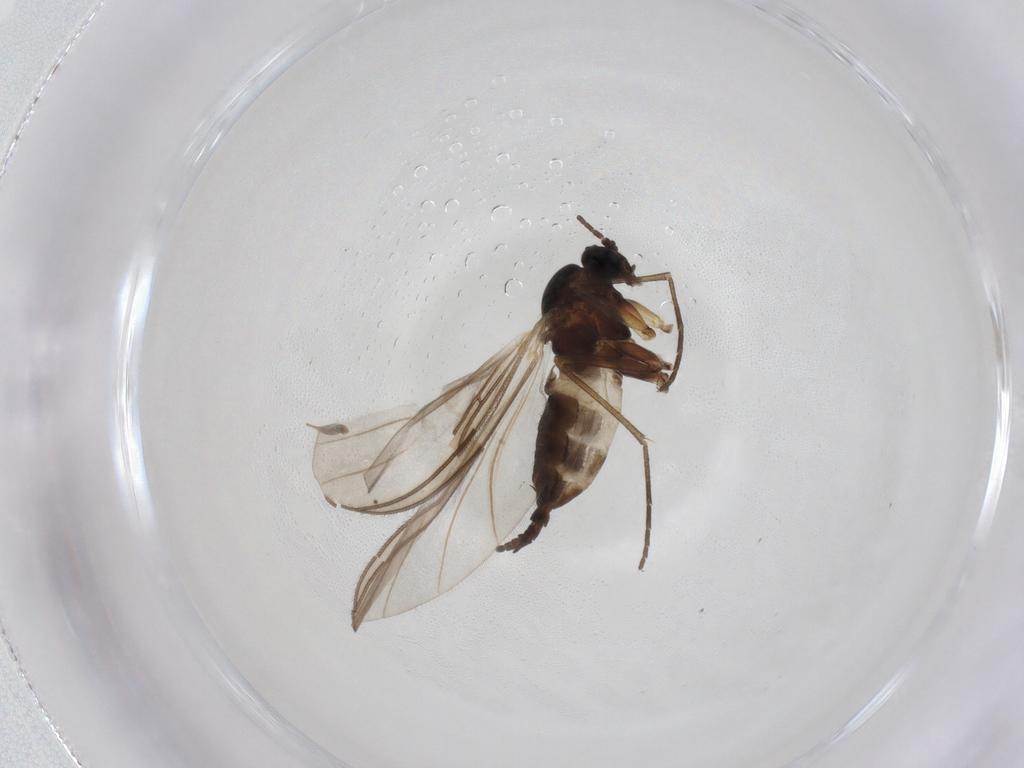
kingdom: Animalia
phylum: Arthropoda
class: Insecta
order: Diptera
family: Sciaridae
